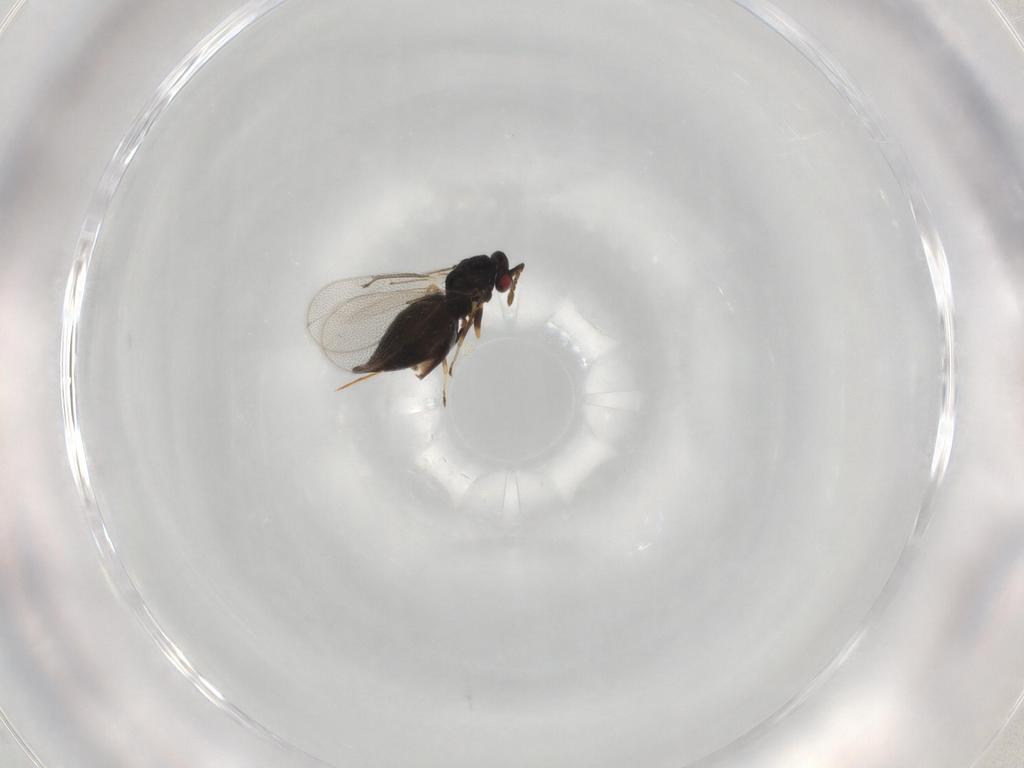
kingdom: Animalia
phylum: Arthropoda
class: Insecta
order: Hymenoptera
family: Eulophidae
